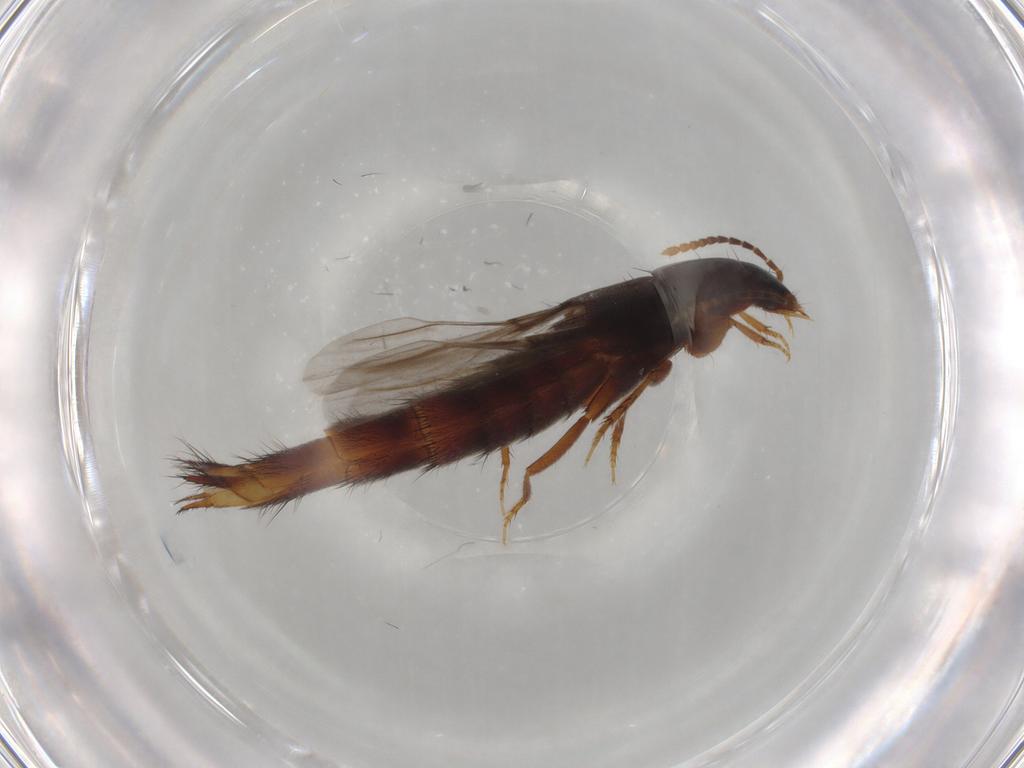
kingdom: Animalia
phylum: Arthropoda
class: Insecta
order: Coleoptera
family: Staphylinidae
